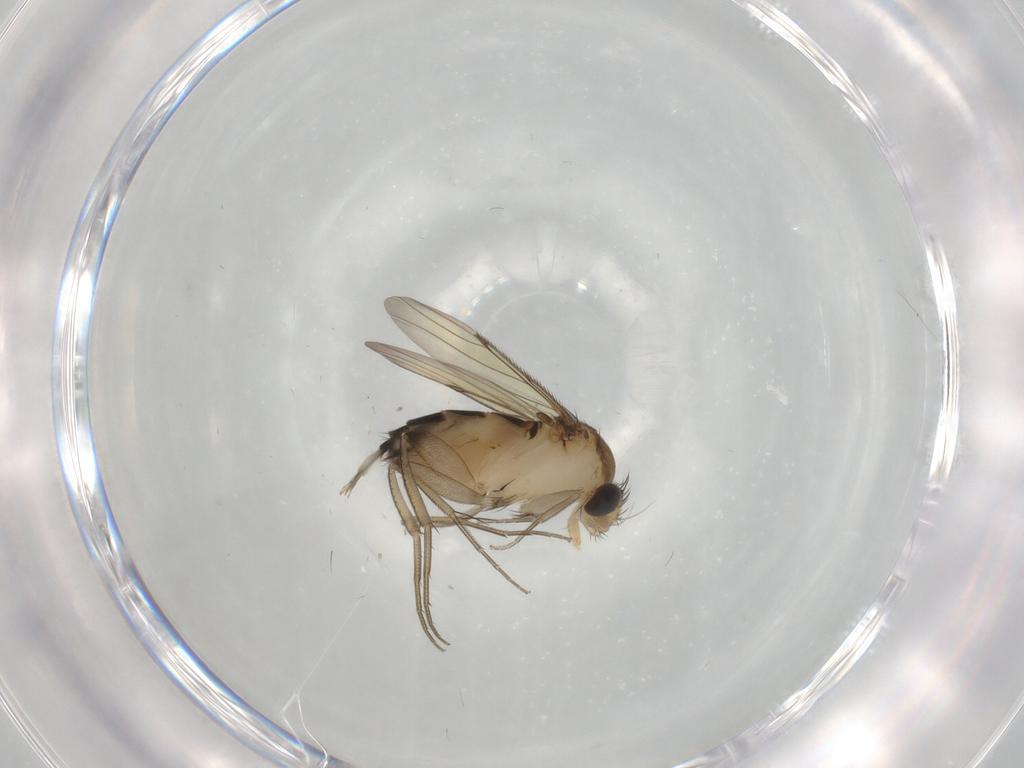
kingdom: Animalia
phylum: Arthropoda
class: Insecta
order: Diptera
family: Phoridae
